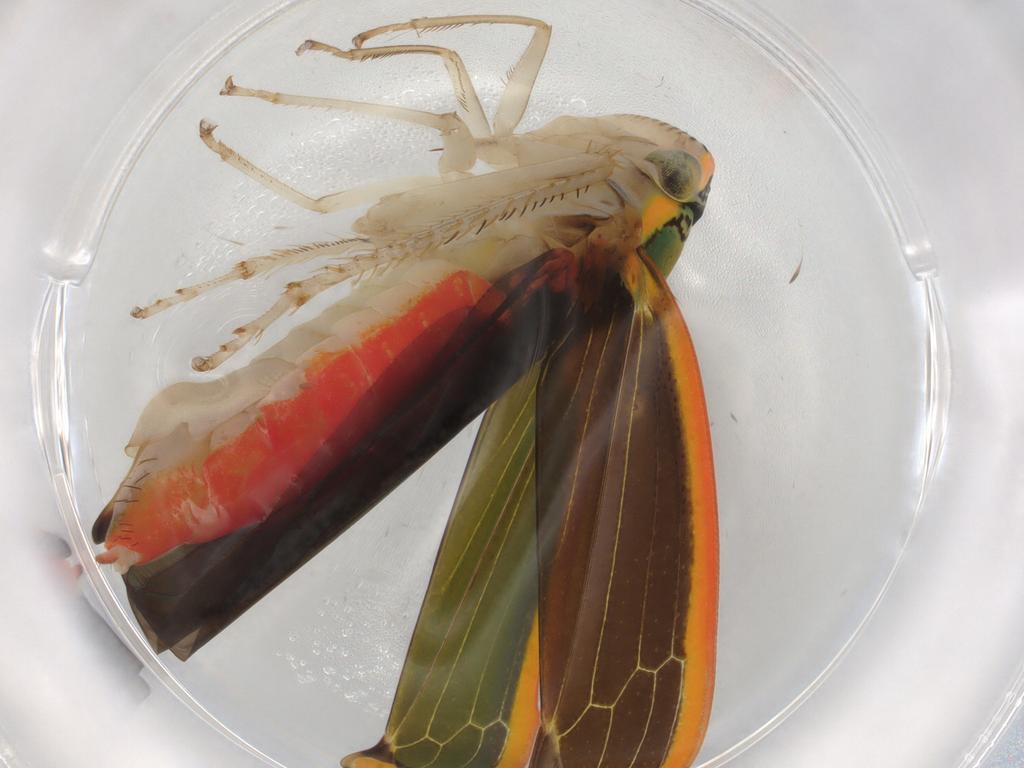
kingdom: Animalia
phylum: Arthropoda
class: Insecta
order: Hemiptera
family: Cicadellidae
